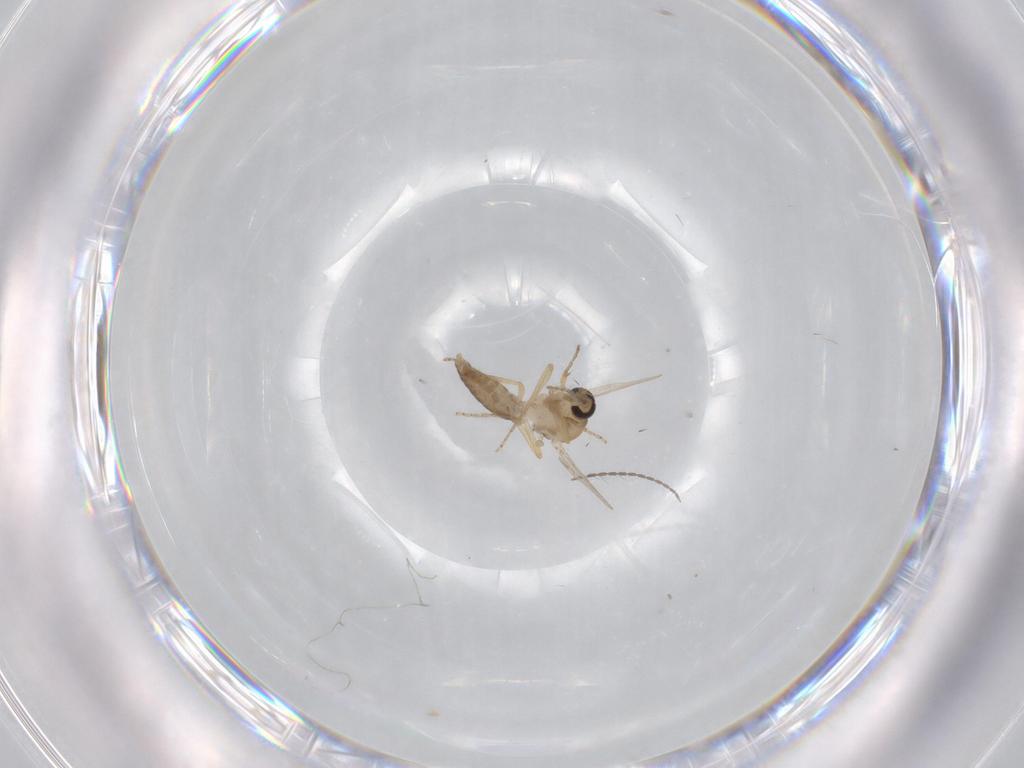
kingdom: Animalia
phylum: Arthropoda
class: Insecta
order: Diptera
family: Ceratopogonidae
